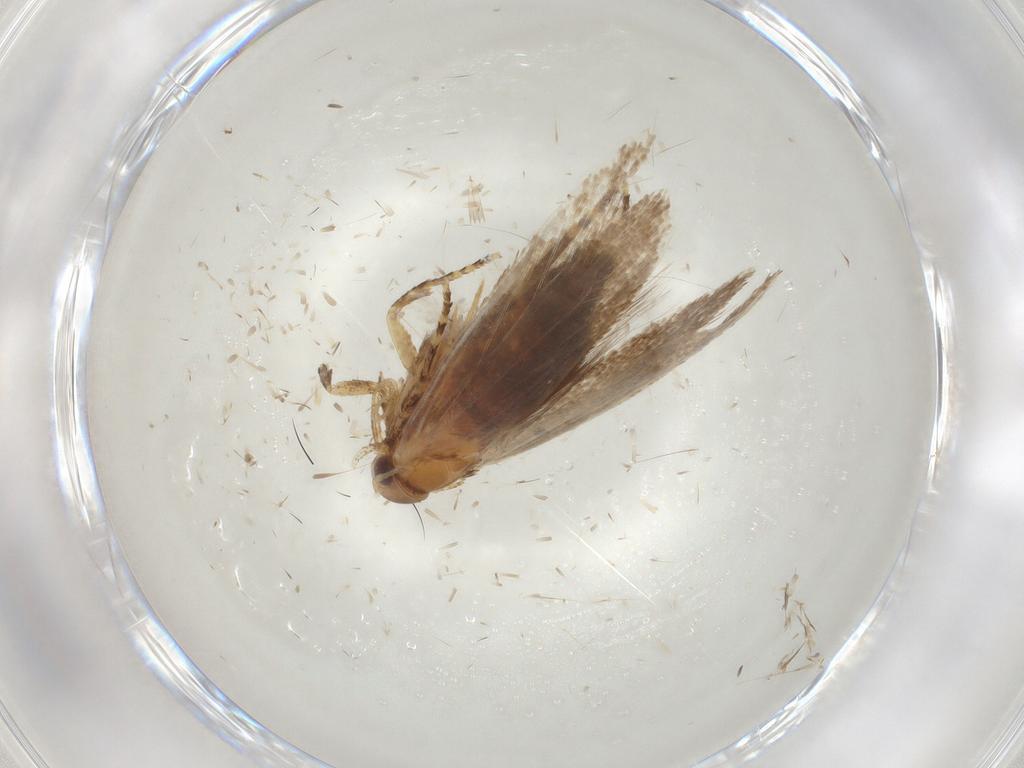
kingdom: Animalia
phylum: Arthropoda
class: Insecta
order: Lepidoptera
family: Oecophoridae
